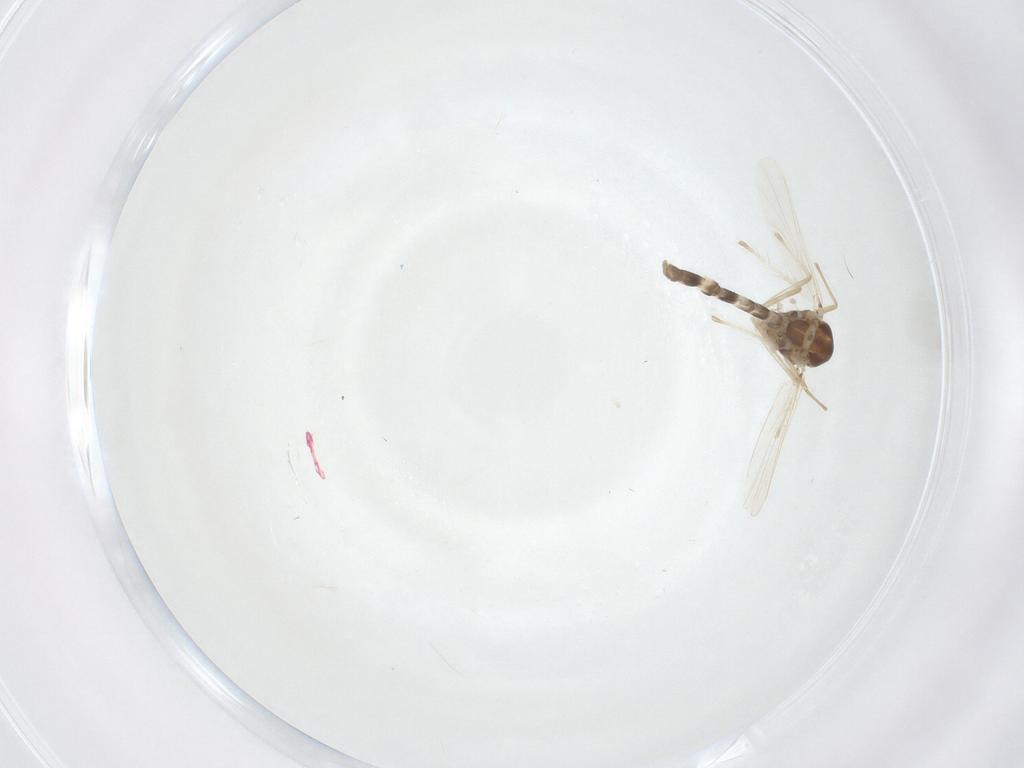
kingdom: Animalia
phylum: Arthropoda
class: Insecta
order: Diptera
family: Chironomidae
